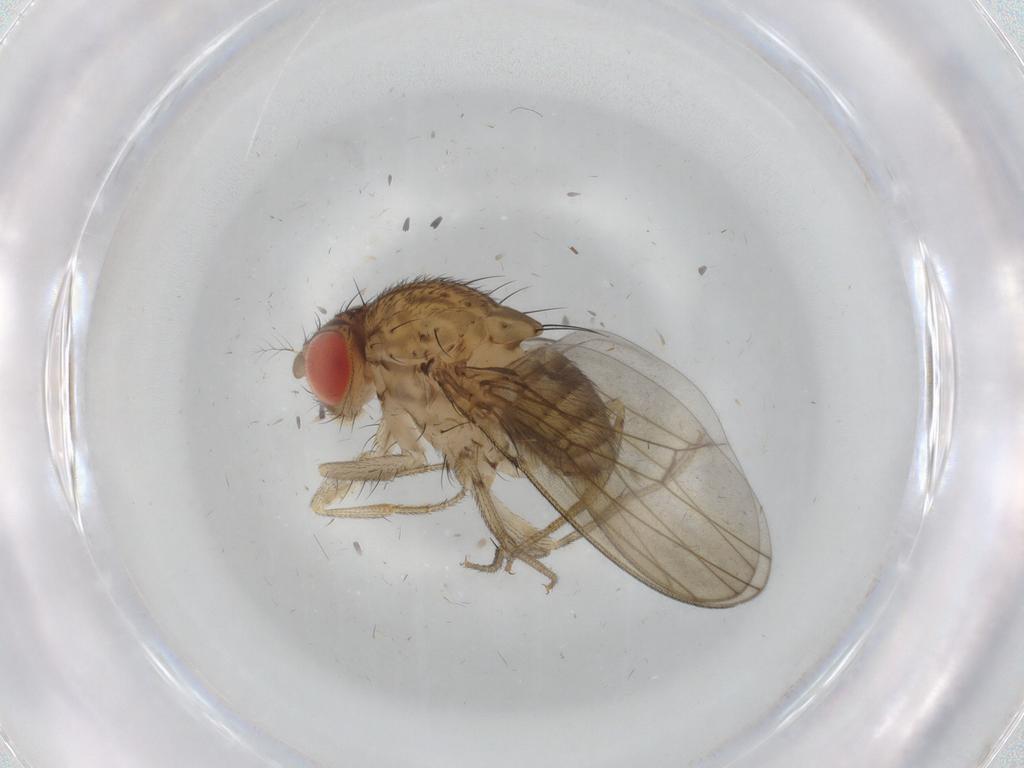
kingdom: Animalia
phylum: Arthropoda
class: Insecta
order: Diptera
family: Drosophilidae
